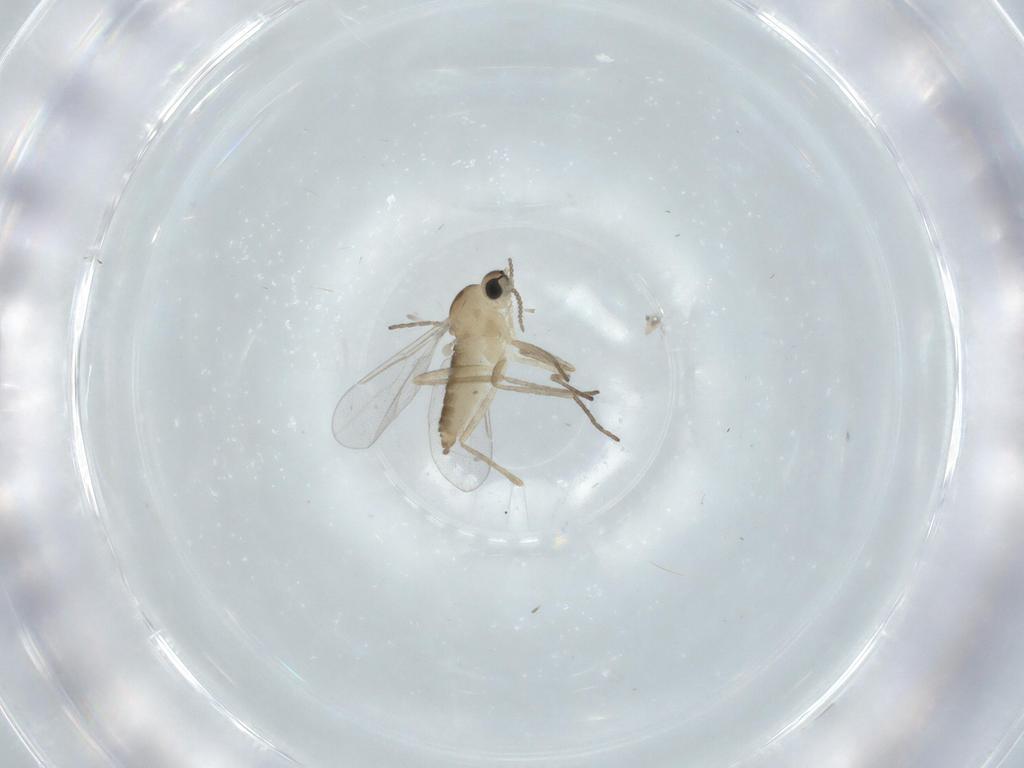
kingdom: Animalia
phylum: Arthropoda
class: Insecta
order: Diptera
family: Cecidomyiidae
